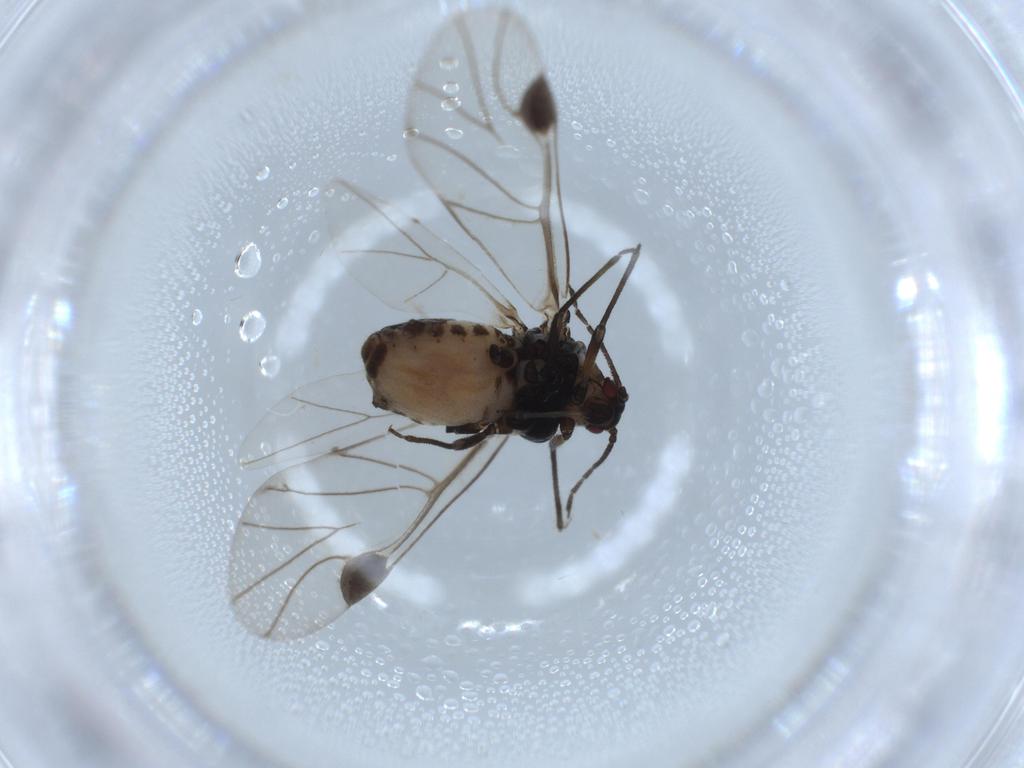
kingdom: Animalia
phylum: Arthropoda
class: Insecta
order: Hemiptera
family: Aphididae
